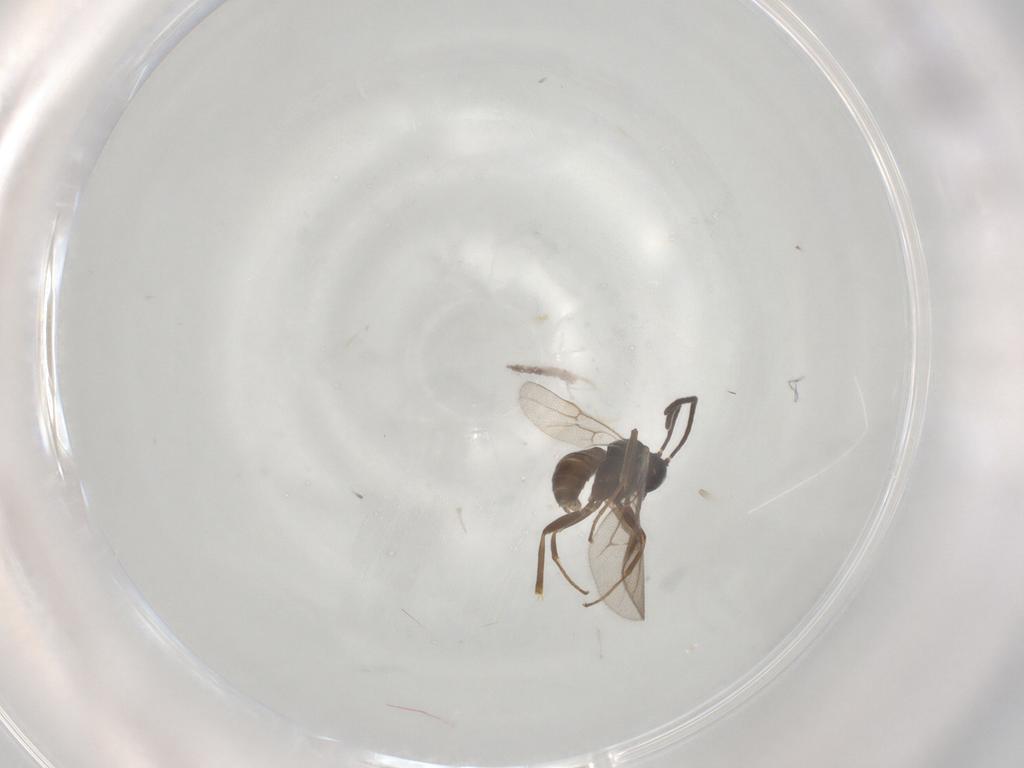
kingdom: Animalia
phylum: Arthropoda
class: Insecta
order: Hymenoptera
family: Ichneumonidae
